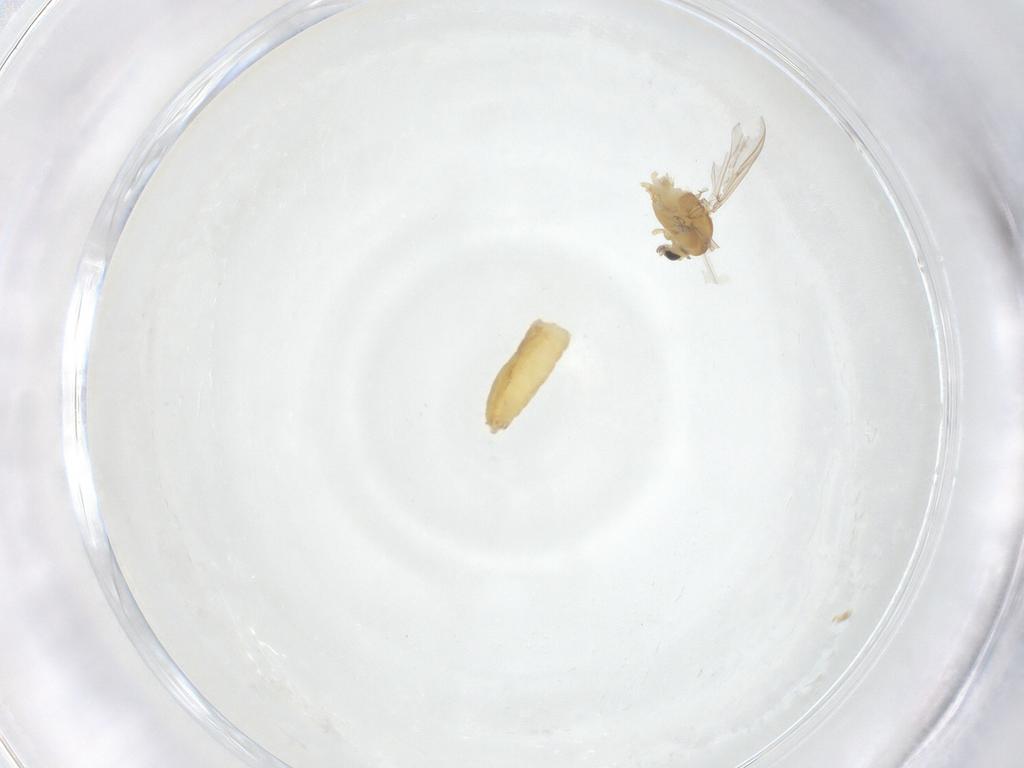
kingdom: Animalia
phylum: Arthropoda
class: Insecta
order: Diptera
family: Chironomidae
